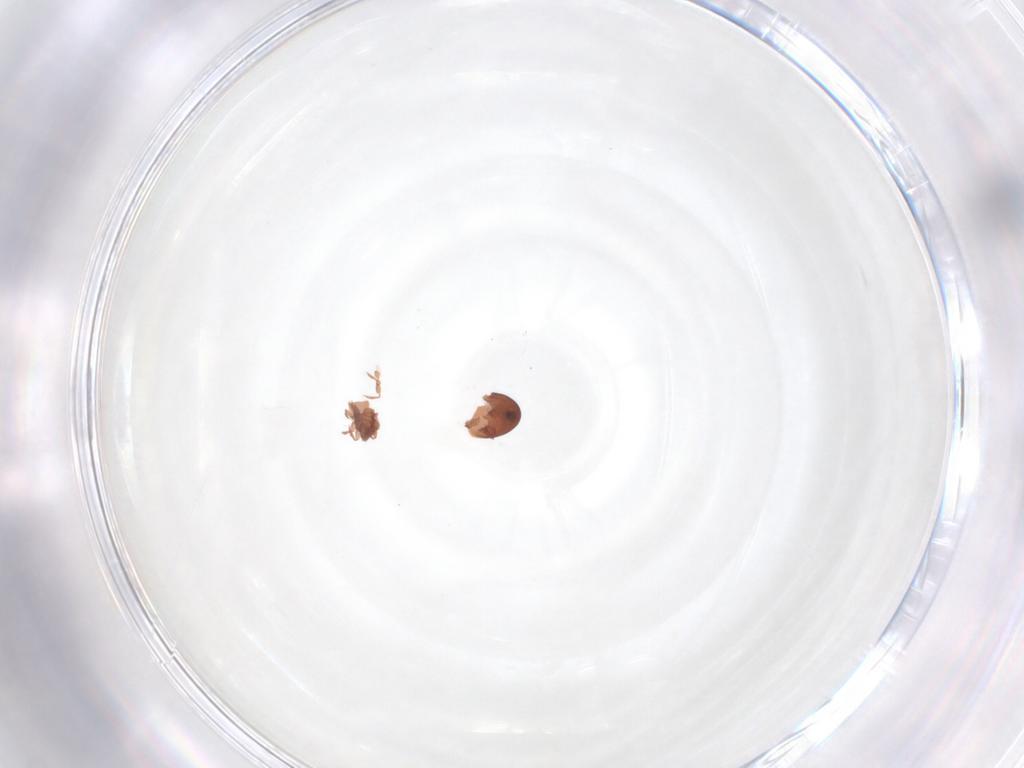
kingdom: Animalia
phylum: Arthropoda
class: Arachnida
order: Sarcoptiformes
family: Scheloribatidae
